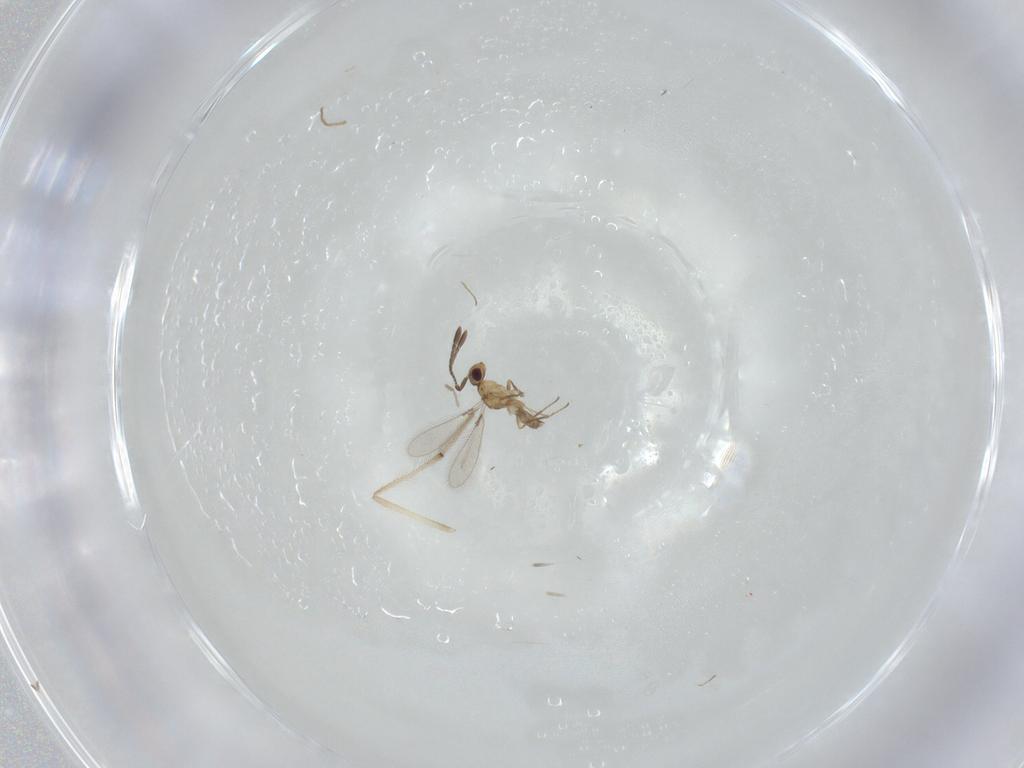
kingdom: Animalia
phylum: Arthropoda
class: Insecta
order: Hymenoptera
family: Mymaridae
